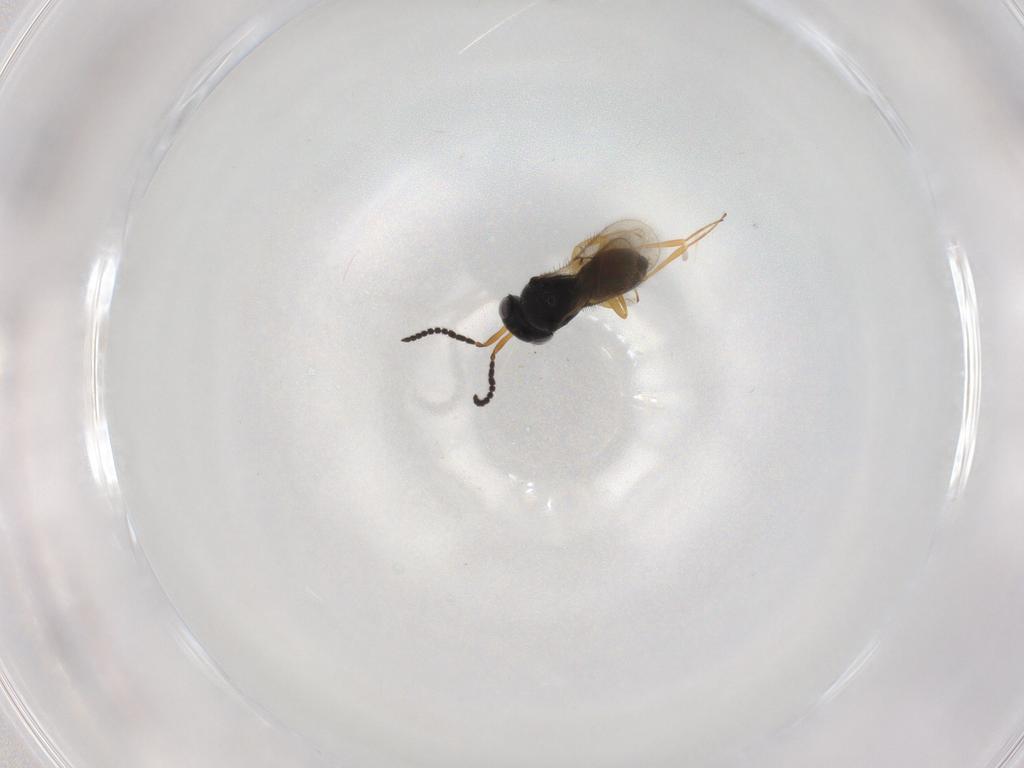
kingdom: Animalia
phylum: Arthropoda
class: Insecta
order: Hymenoptera
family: Scelionidae
